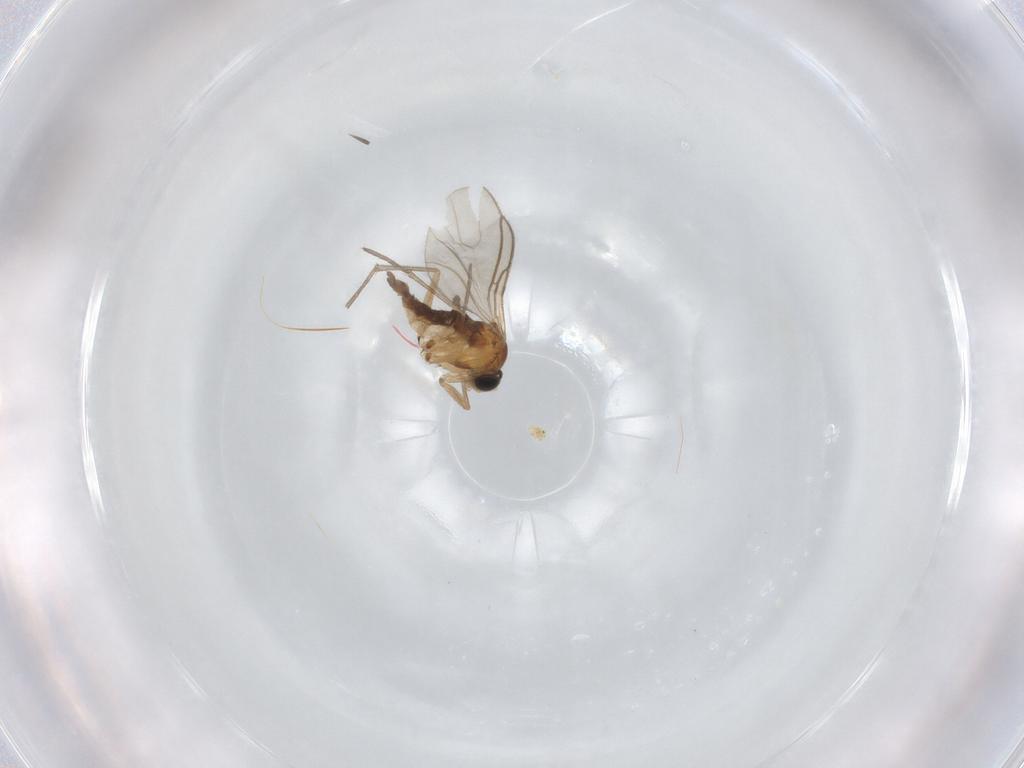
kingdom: Animalia
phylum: Arthropoda
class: Insecta
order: Diptera
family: Sciaridae
